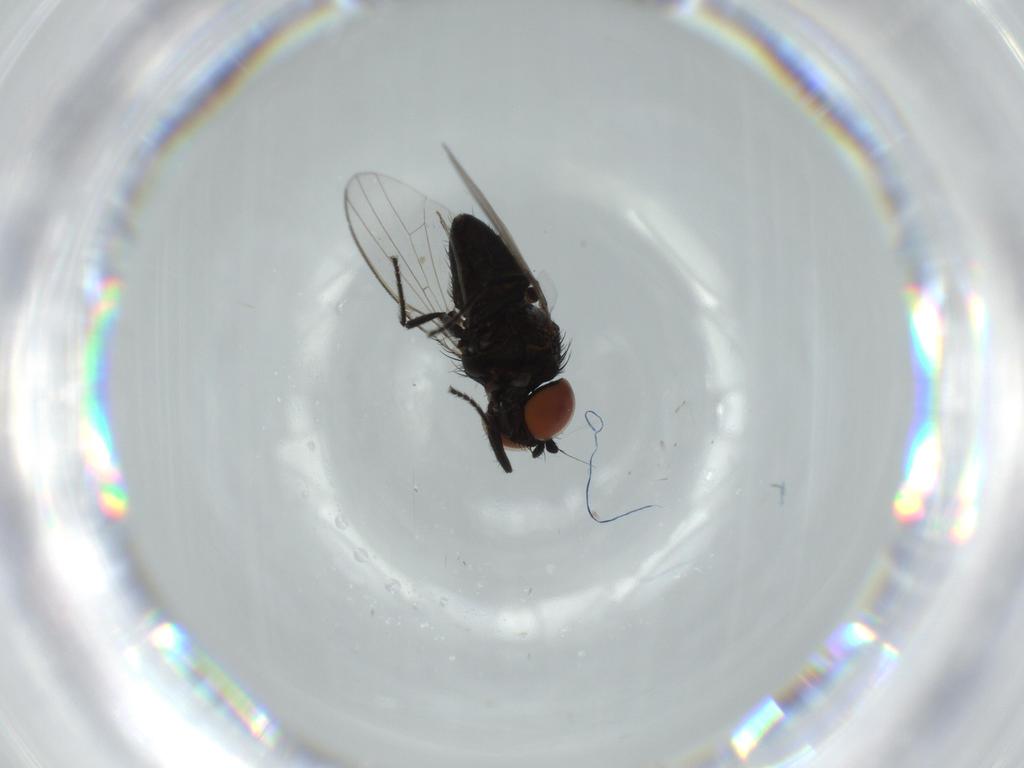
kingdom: Animalia
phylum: Arthropoda
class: Insecta
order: Diptera
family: Milichiidae
